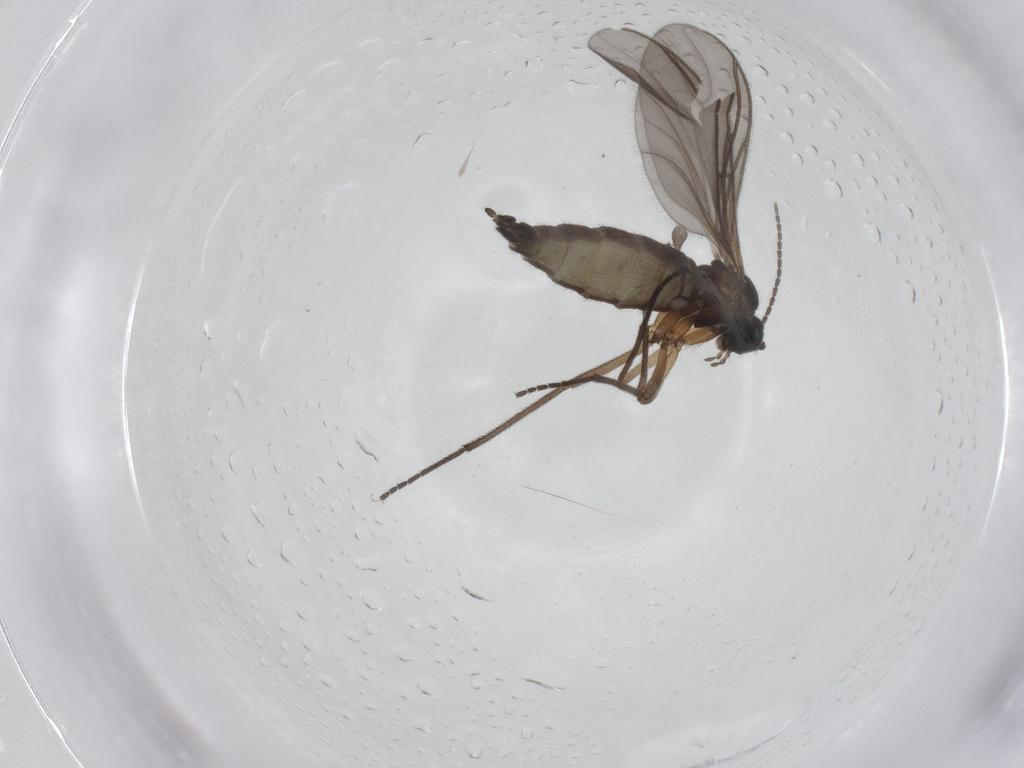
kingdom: Animalia
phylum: Arthropoda
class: Insecta
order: Diptera
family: Sciaridae
